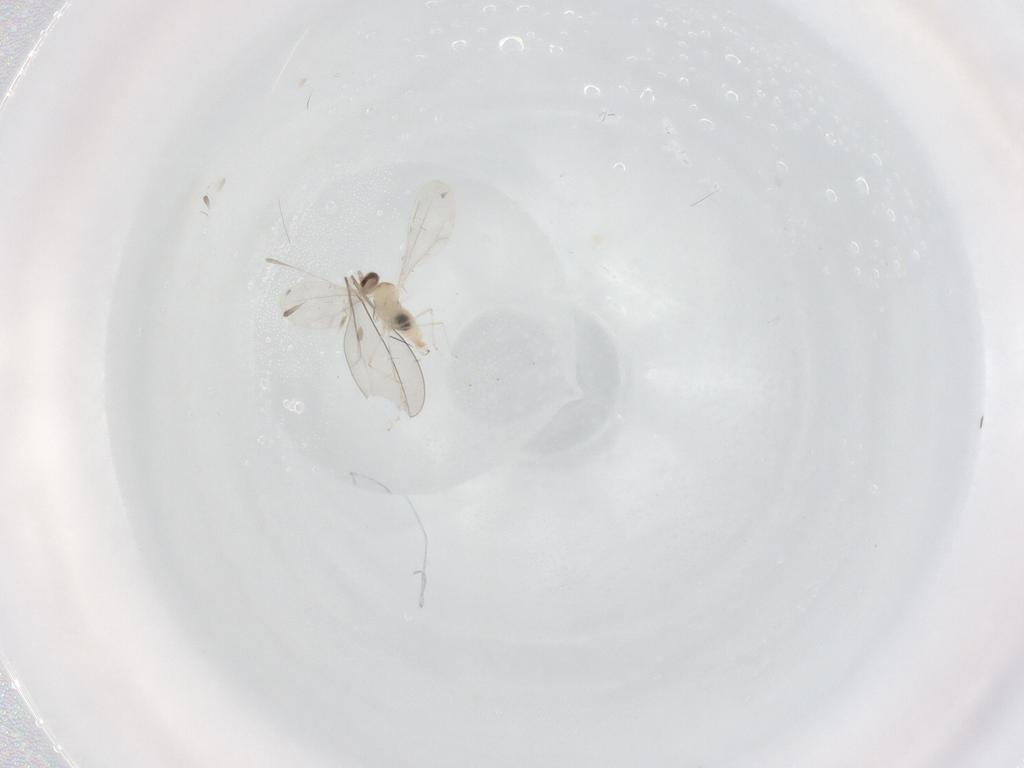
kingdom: Animalia
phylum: Arthropoda
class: Insecta
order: Diptera
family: Cecidomyiidae
